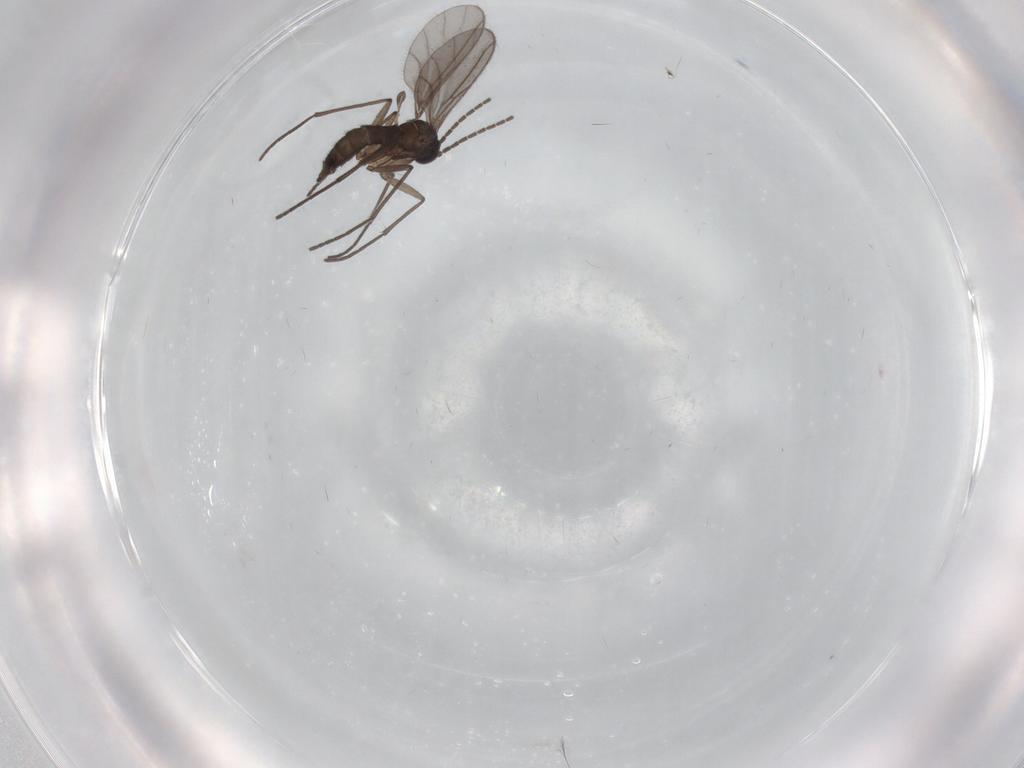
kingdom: Animalia
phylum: Arthropoda
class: Insecta
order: Diptera
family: Sciaridae
